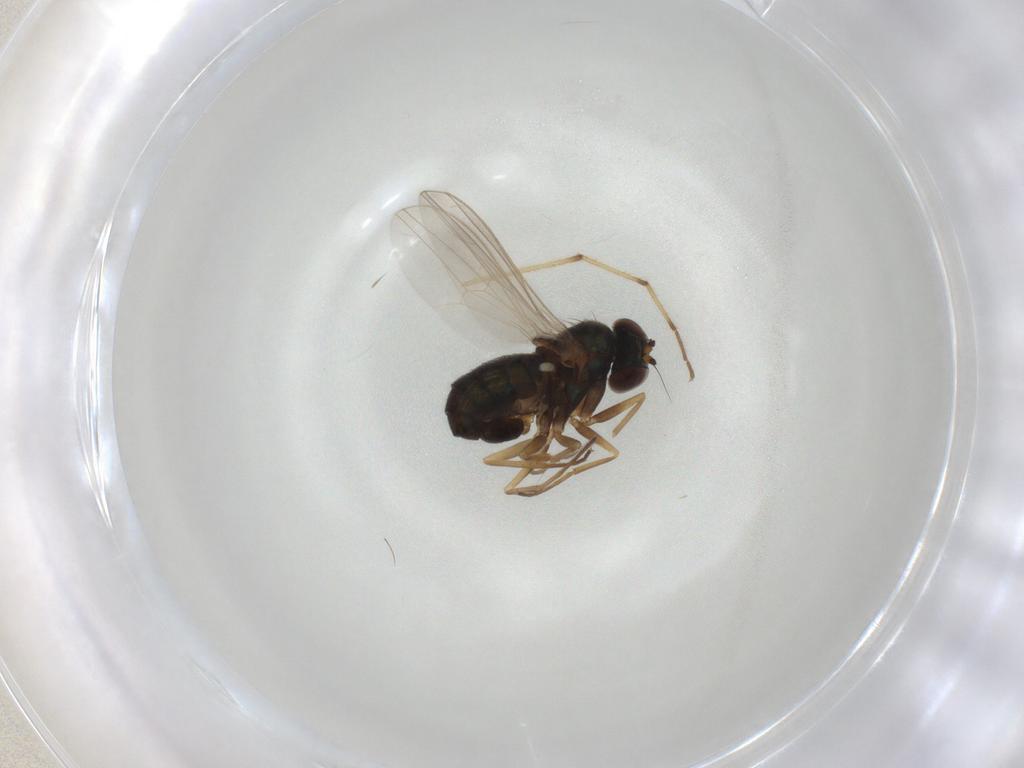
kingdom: Animalia
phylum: Arthropoda
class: Insecta
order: Diptera
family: Dolichopodidae
